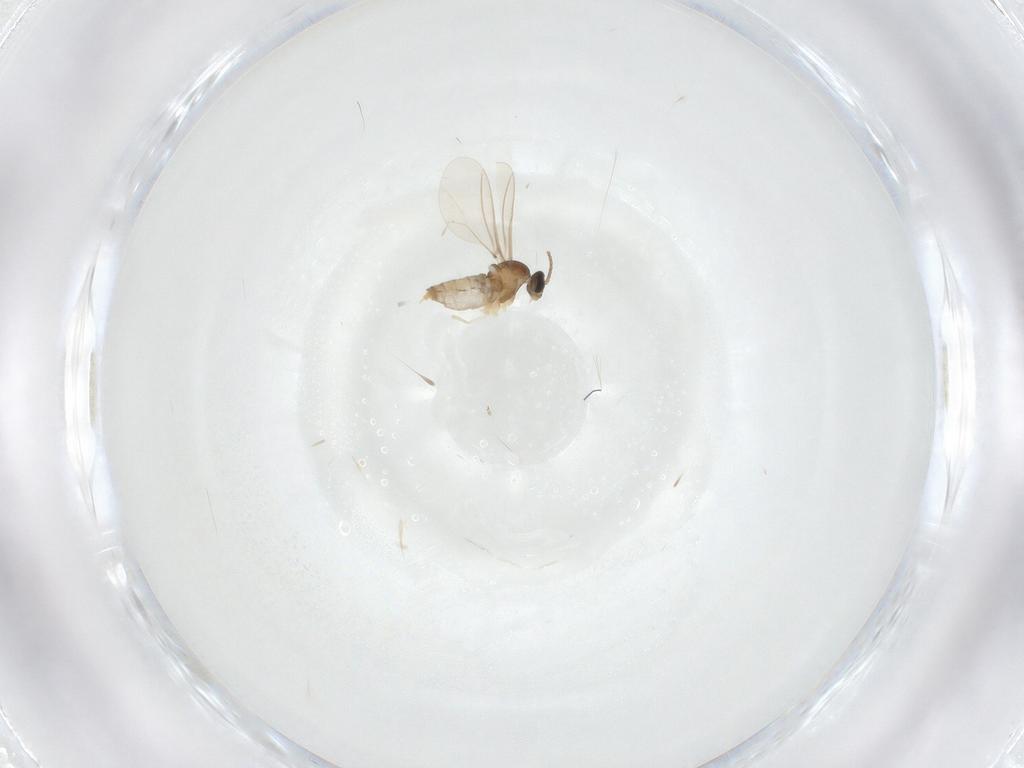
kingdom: Animalia
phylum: Arthropoda
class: Insecta
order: Diptera
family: Cecidomyiidae
